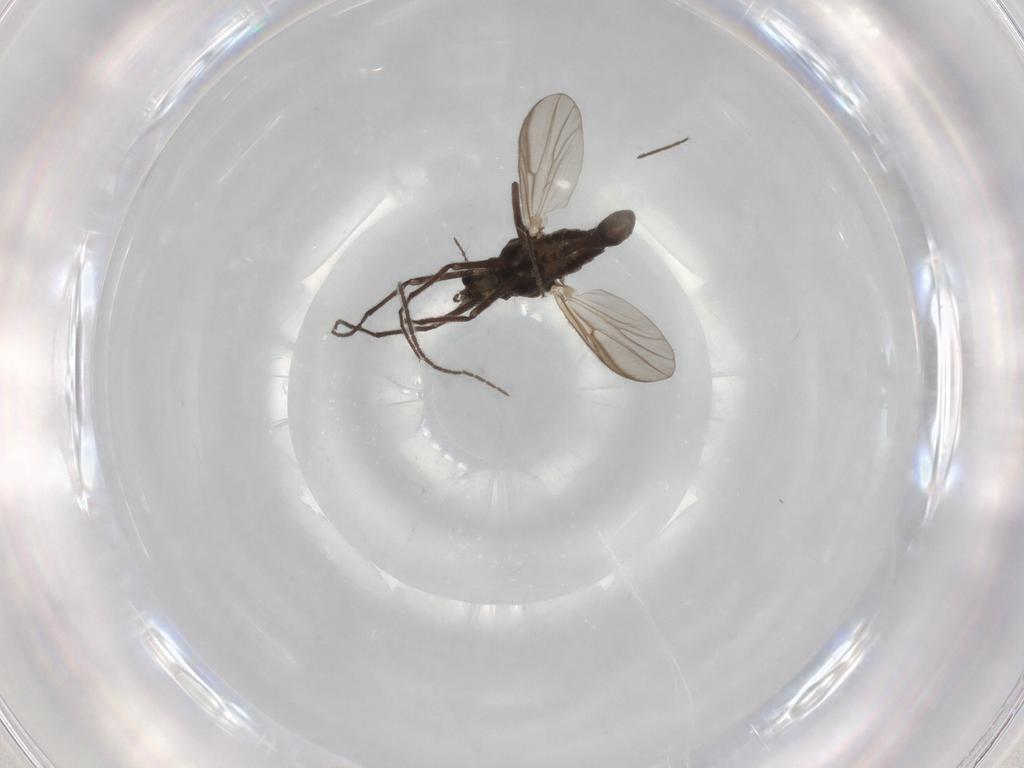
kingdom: Animalia
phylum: Arthropoda
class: Insecta
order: Diptera
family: Chironomidae
